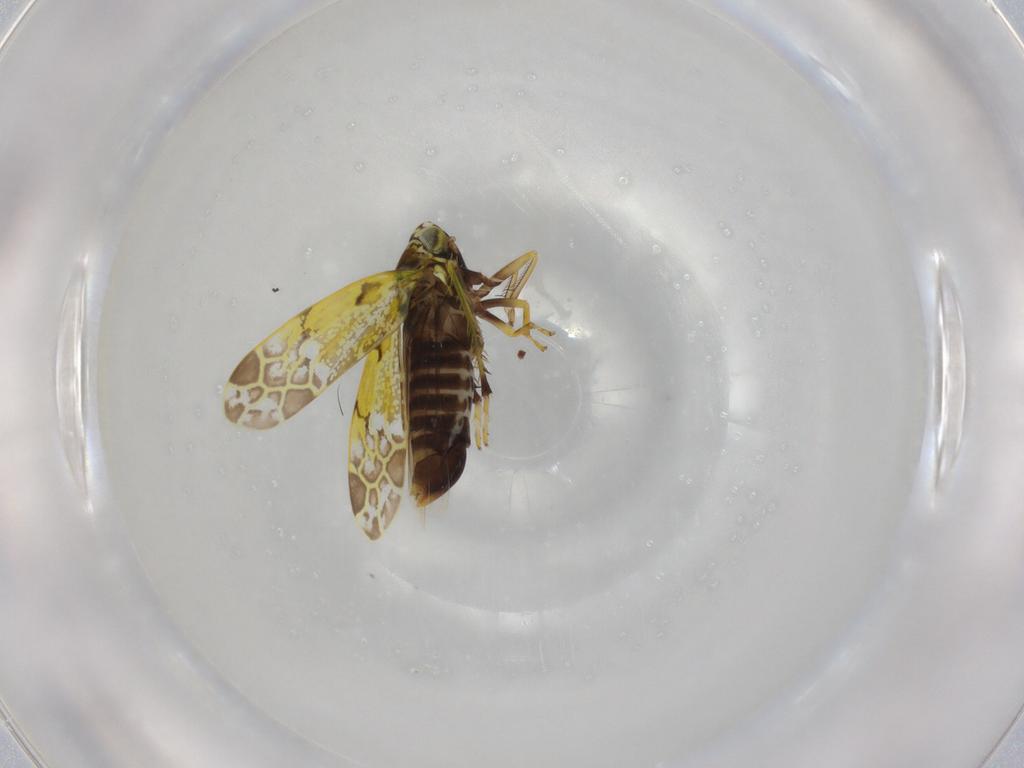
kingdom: Animalia
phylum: Arthropoda
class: Insecta
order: Hemiptera
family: Cicadellidae
